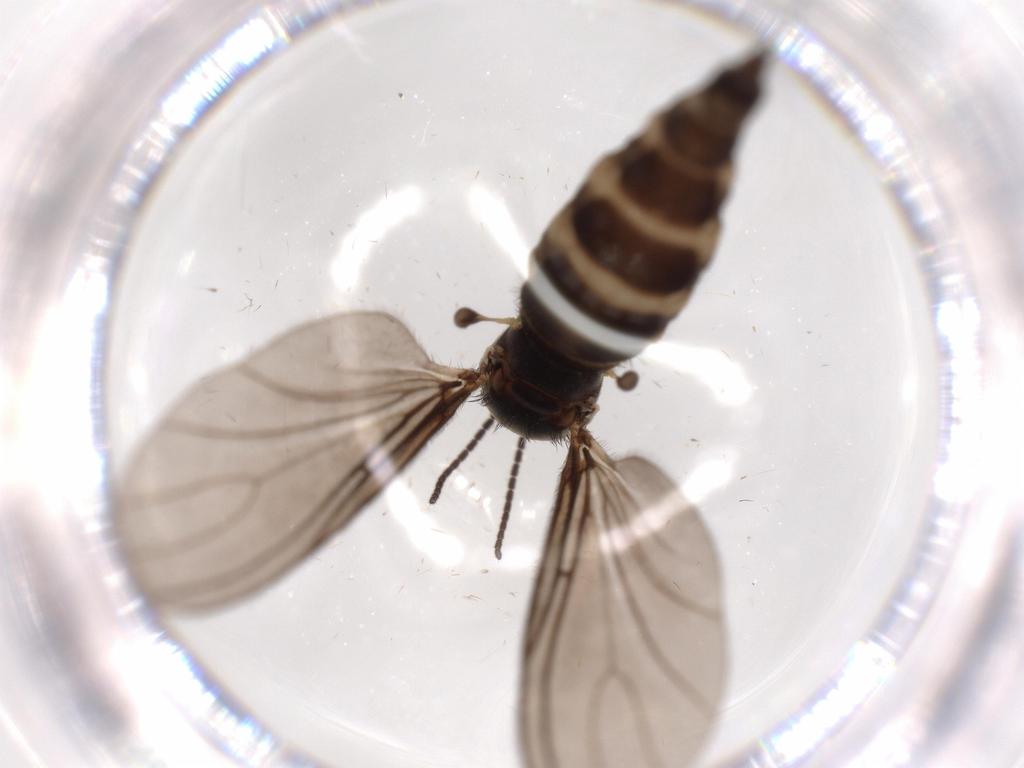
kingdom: Animalia
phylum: Arthropoda
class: Insecta
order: Diptera
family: Sciaridae
